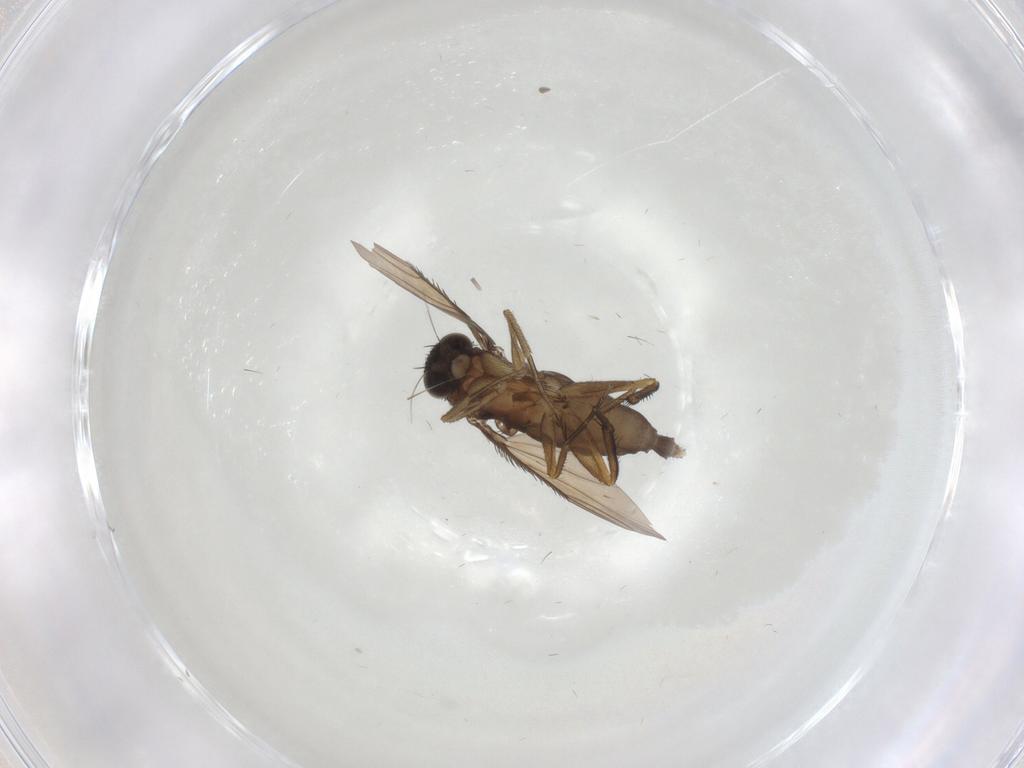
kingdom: Animalia
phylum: Arthropoda
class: Insecta
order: Diptera
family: Phoridae
